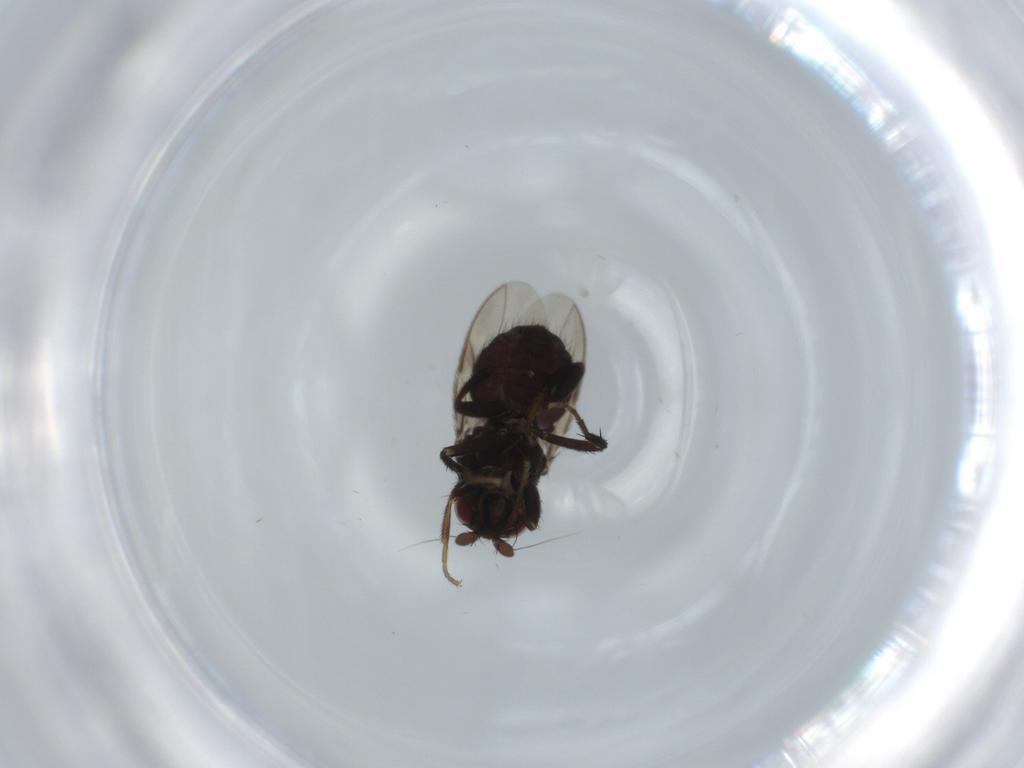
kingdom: Animalia
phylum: Arthropoda
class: Insecta
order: Diptera
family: Sphaeroceridae
